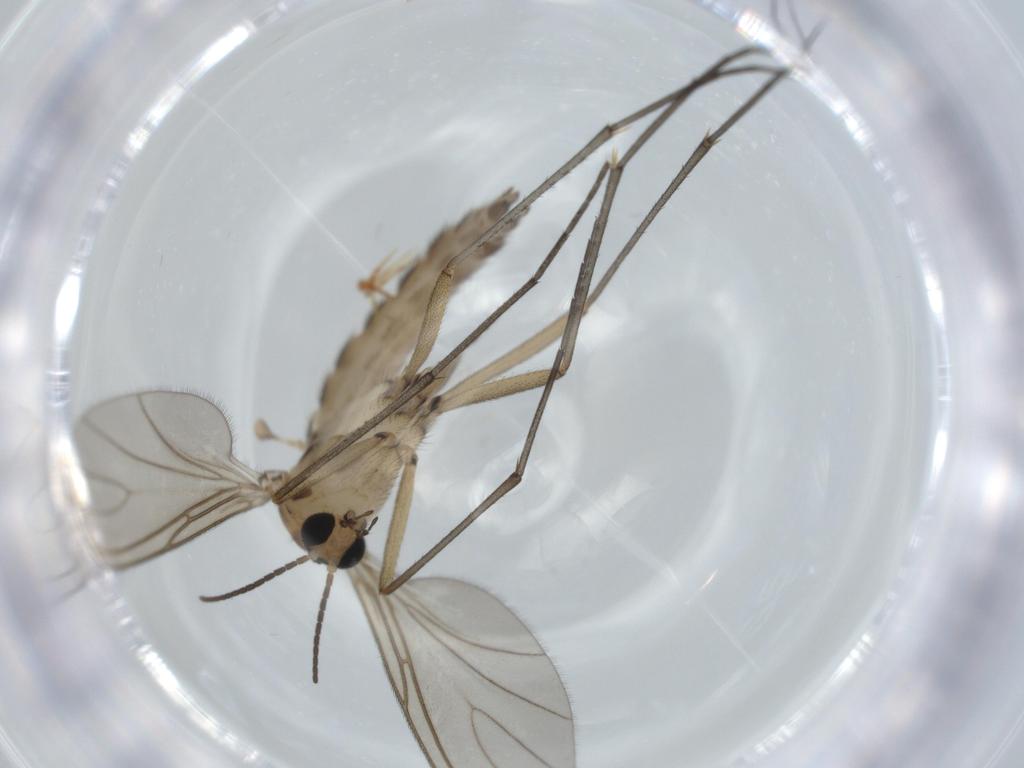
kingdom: Animalia
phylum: Arthropoda
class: Insecta
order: Diptera
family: Sciaridae
